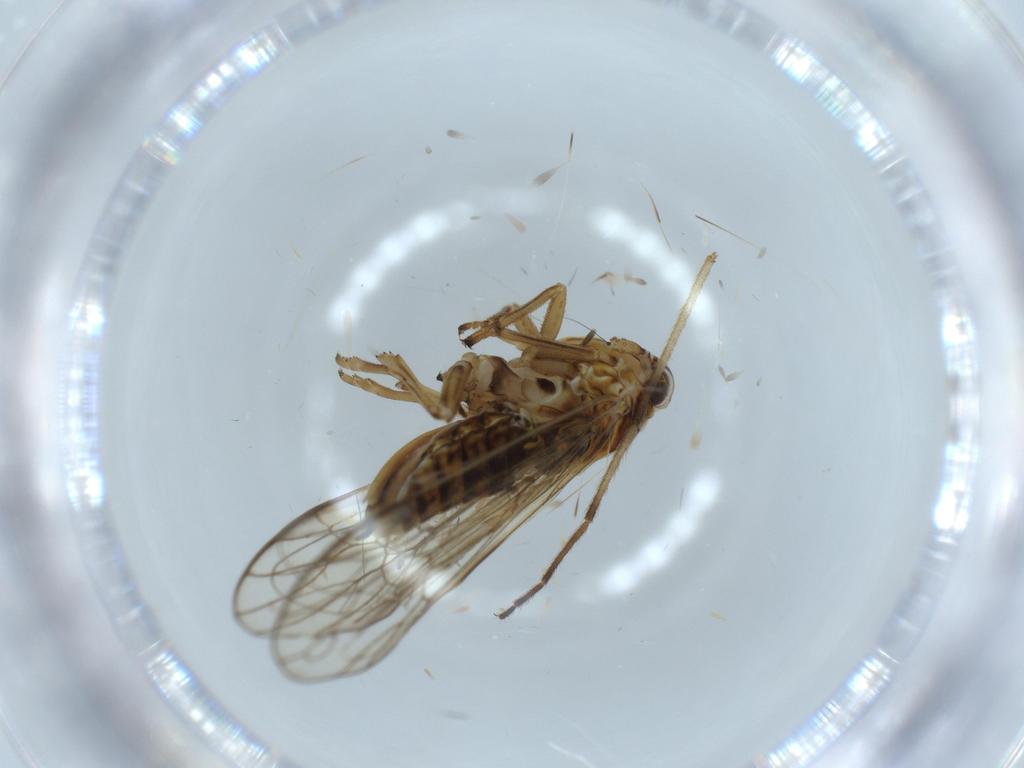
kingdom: Animalia
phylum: Arthropoda
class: Insecta
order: Hemiptera
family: Delphacidae
